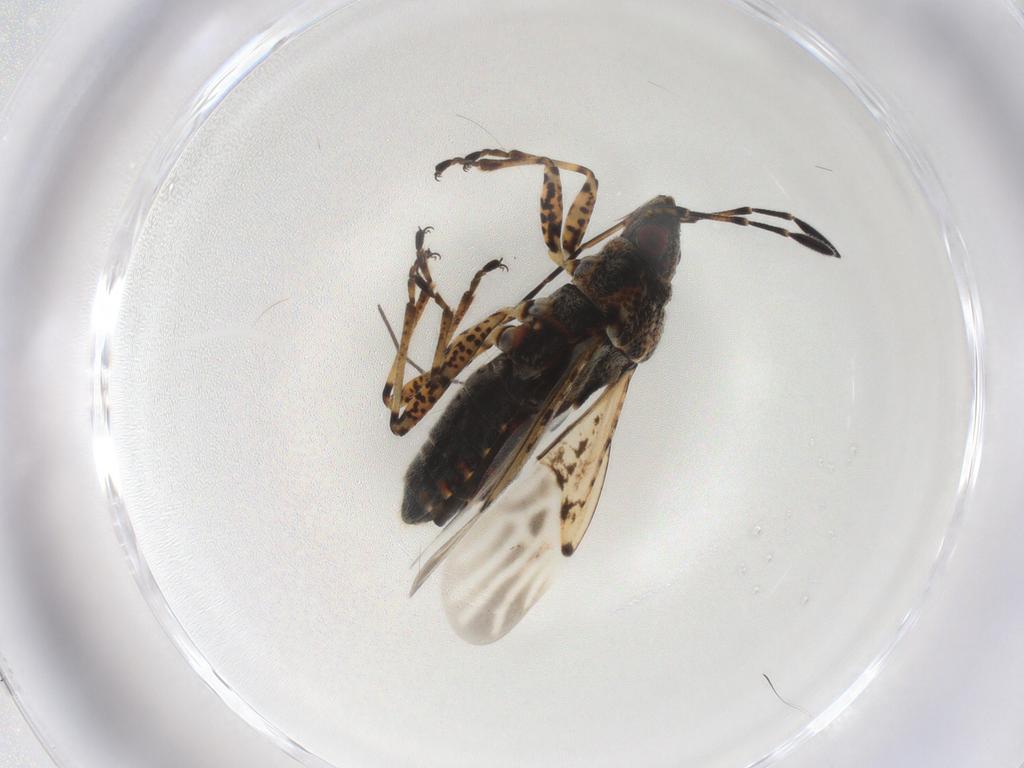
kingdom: Animalia
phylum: Arthropoda
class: Insecta
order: Hemiptera
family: Lygaeidae
